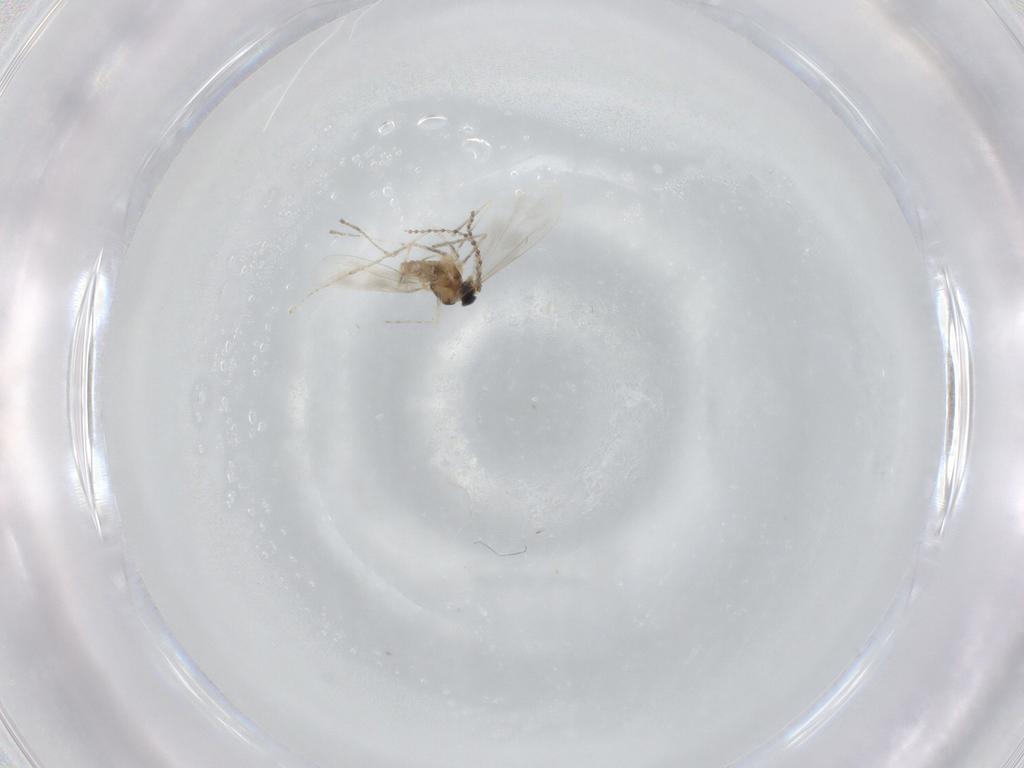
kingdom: Animalia
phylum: Arthropoda
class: Insecta
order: Diptera
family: Cecidomyiidae
